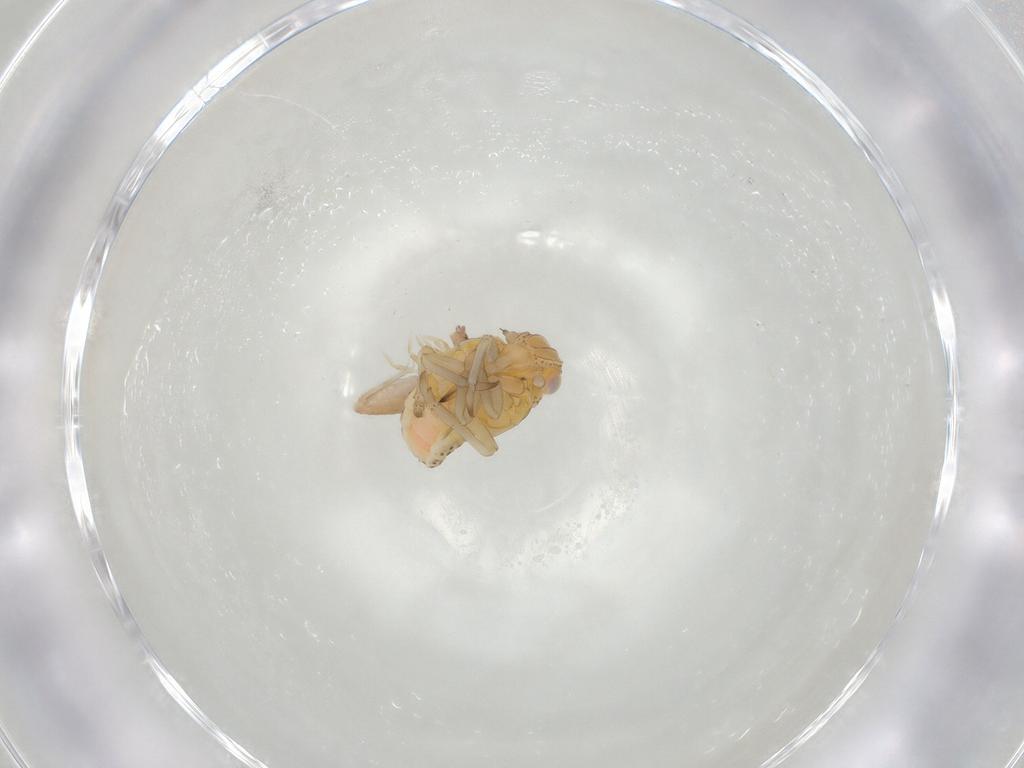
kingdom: Animalia
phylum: Arthropoda
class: Insecta
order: Hemiptera
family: Tropiduchidae
